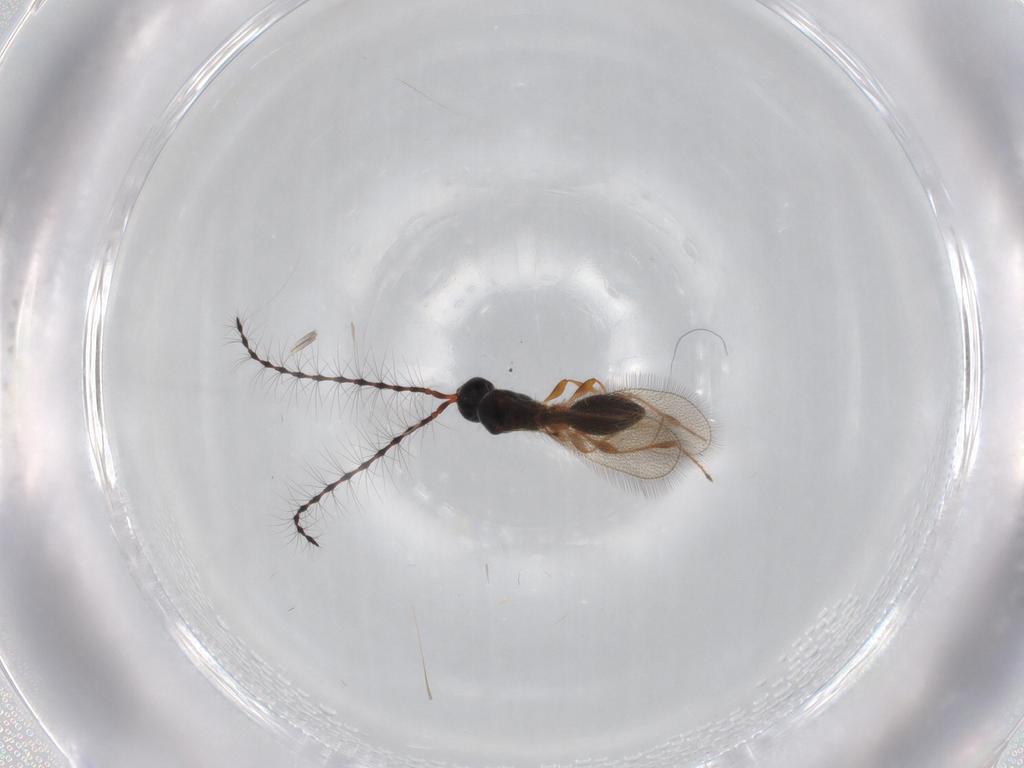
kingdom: Animalia
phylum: Arthropoda
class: Insecta
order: Hymenoptera
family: Diapriidae
